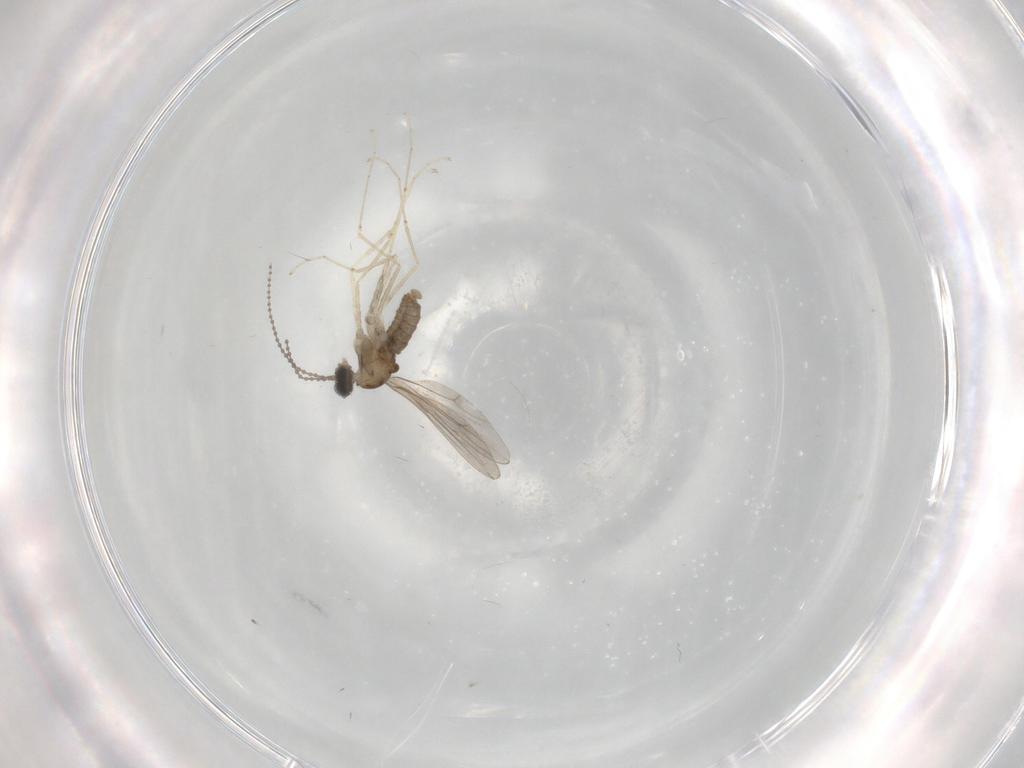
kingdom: Animalia
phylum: Arthropoda
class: Insecta
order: Diptera
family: Cecidomyiidae
